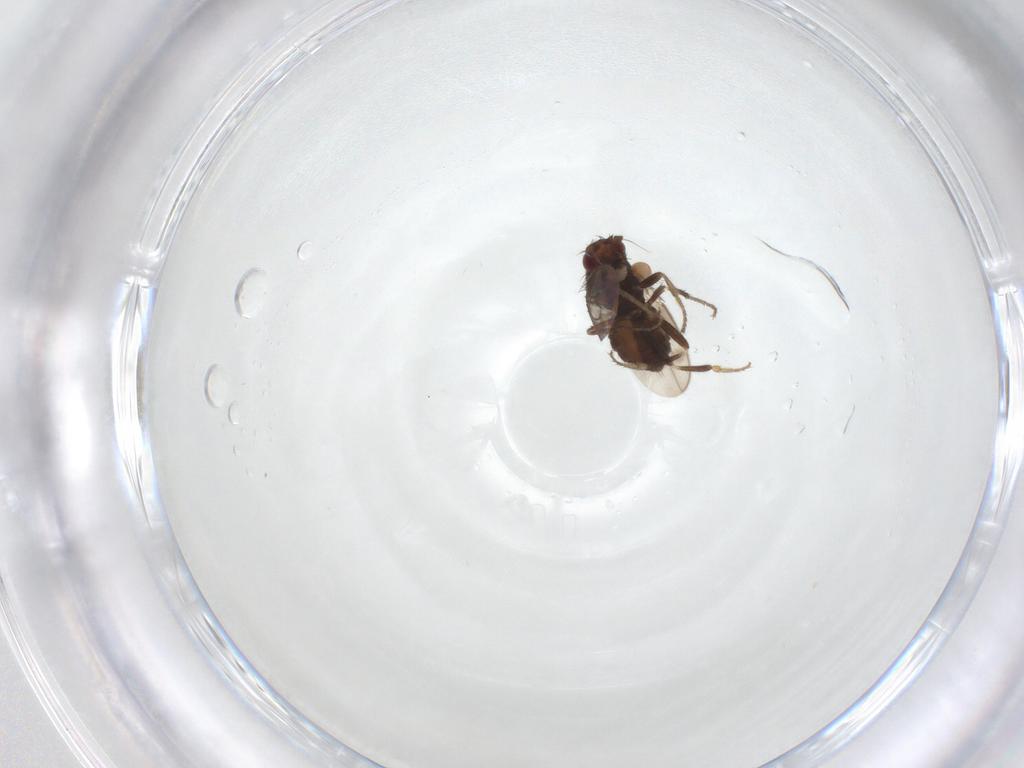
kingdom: Animalia
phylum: Arthropoda
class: Insecta
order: Diptera
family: Sphaeroceridae
